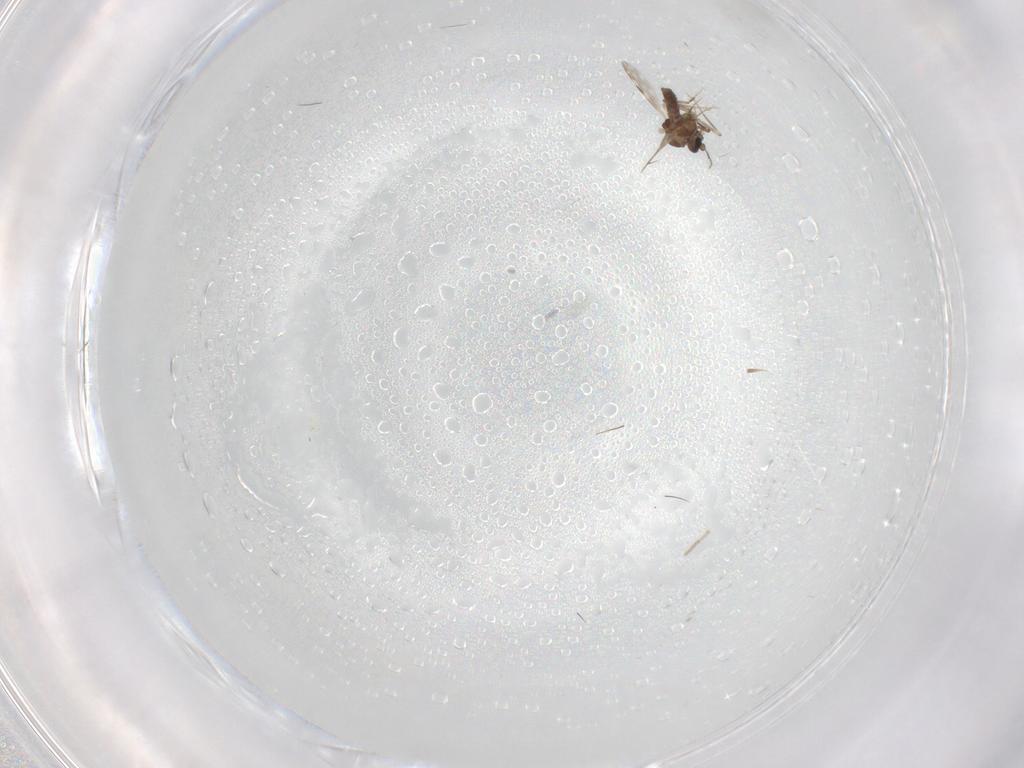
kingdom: Animalia
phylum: Arthropoda
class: Insecta
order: Diptera
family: Chironomidae
